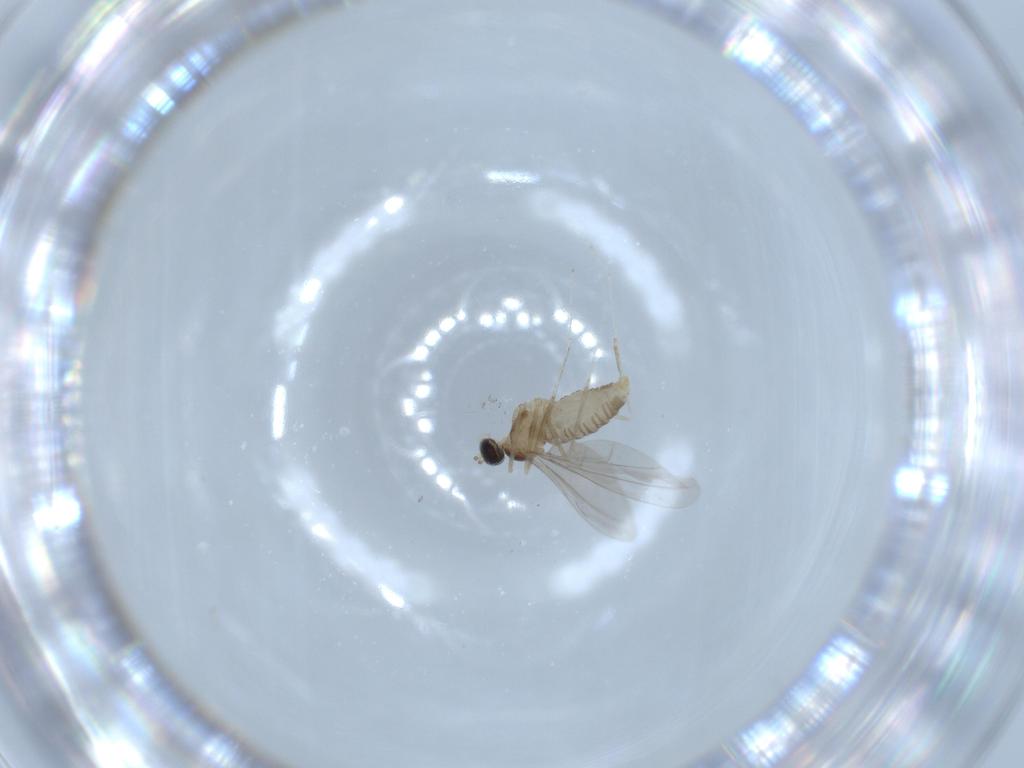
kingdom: Animalia
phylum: Arthropoda
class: Insecta
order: Diptera
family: Cecidomyiidae
